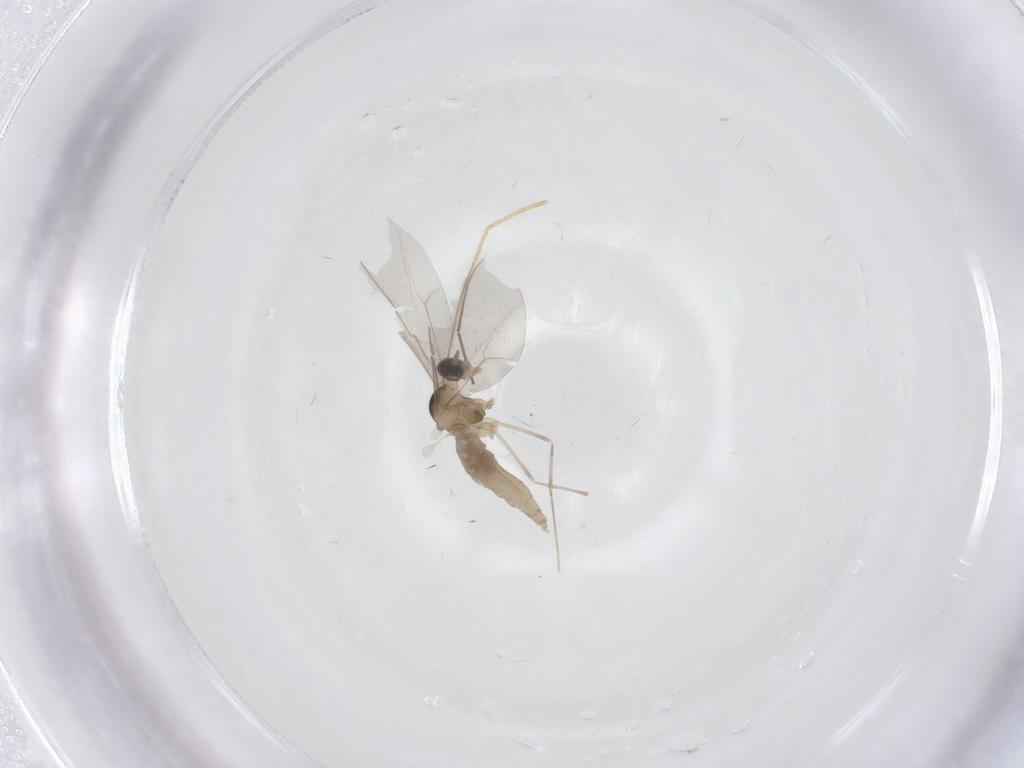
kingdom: Animalia
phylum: Arthropoda
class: Insecta
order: Diptera
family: Cecidomyiidae
